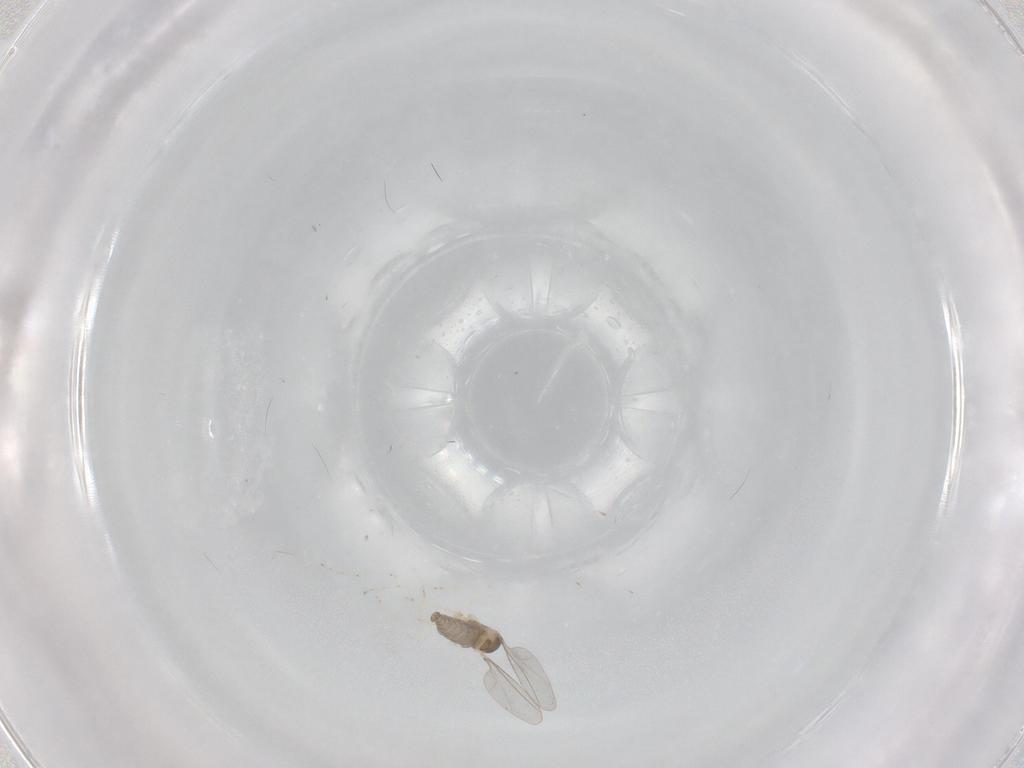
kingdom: Animalia
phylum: Arthropoda
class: Insecta
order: Diptera
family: Cecidomyiidae
